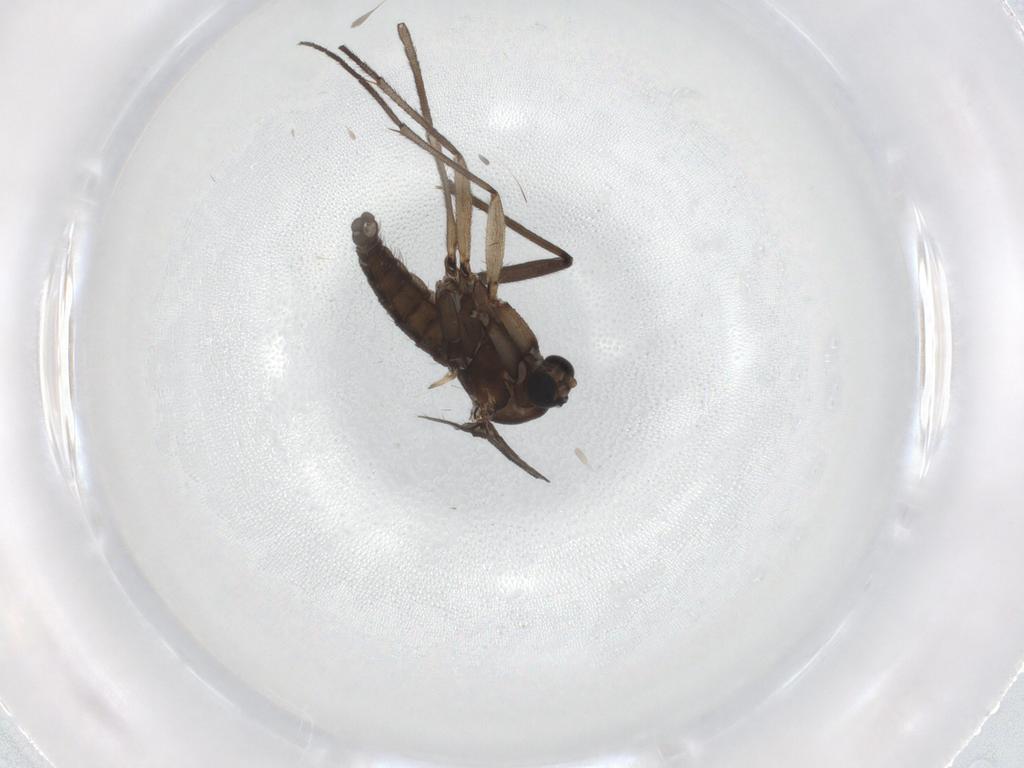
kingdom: Animalia
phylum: Arthropoda
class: Insecta
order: Diptera
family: Sciaridae
